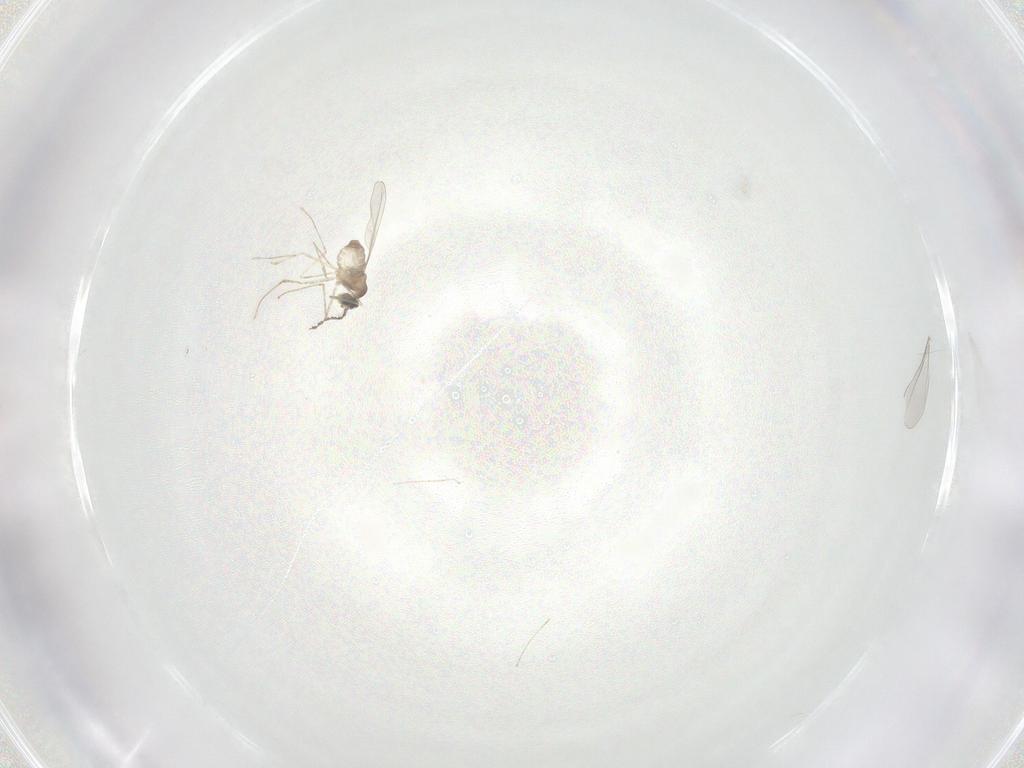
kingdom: Animalia
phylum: Arthropoda
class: Insecta
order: Diptera
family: Cecidomyiidae
